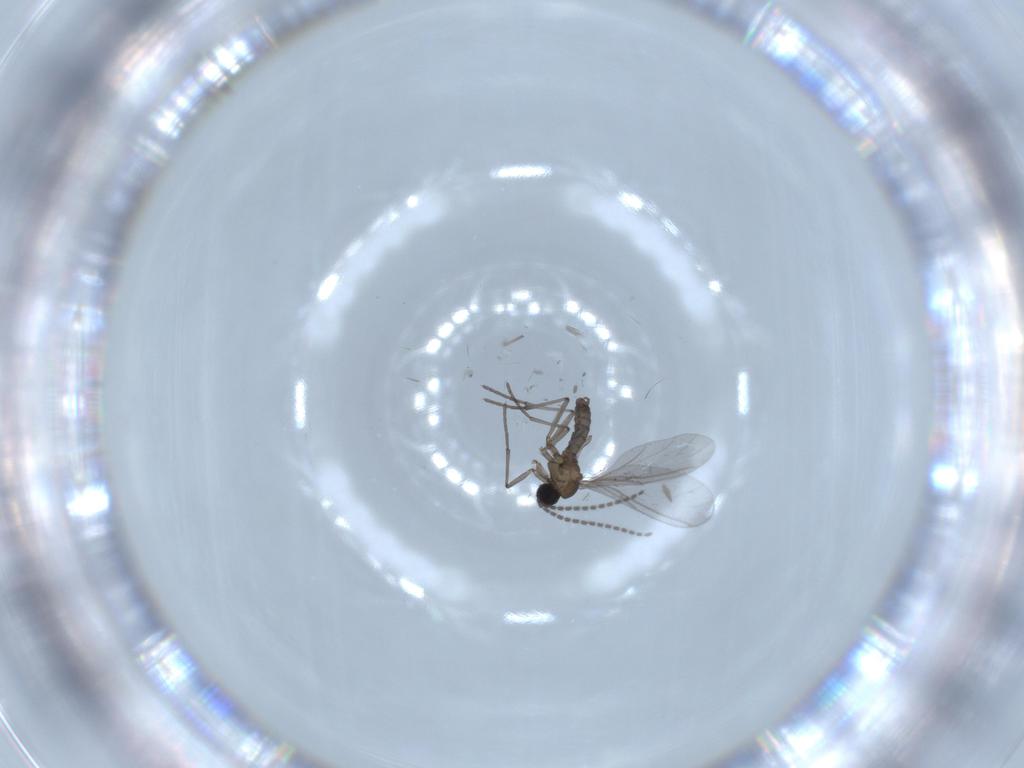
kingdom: Animalia
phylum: Arthropoda
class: Insecta
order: Diptera
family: Sciaridae
